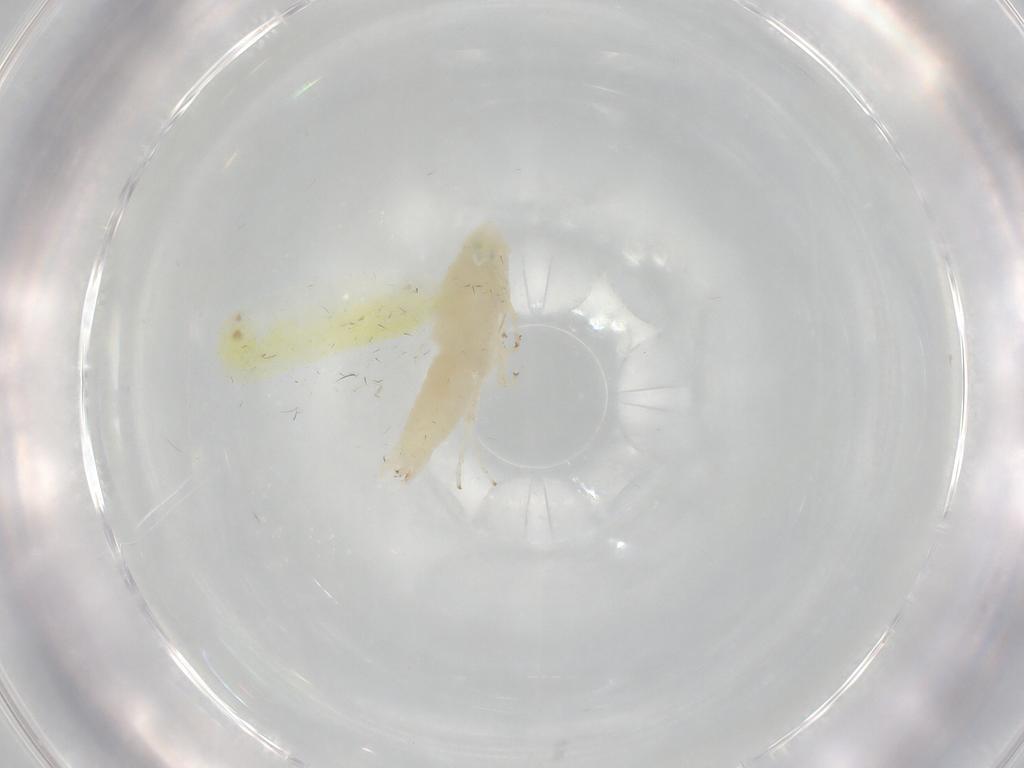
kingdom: Animalia
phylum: Arthropoda
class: Insecta
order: Hemiptera
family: Cicadellidae
